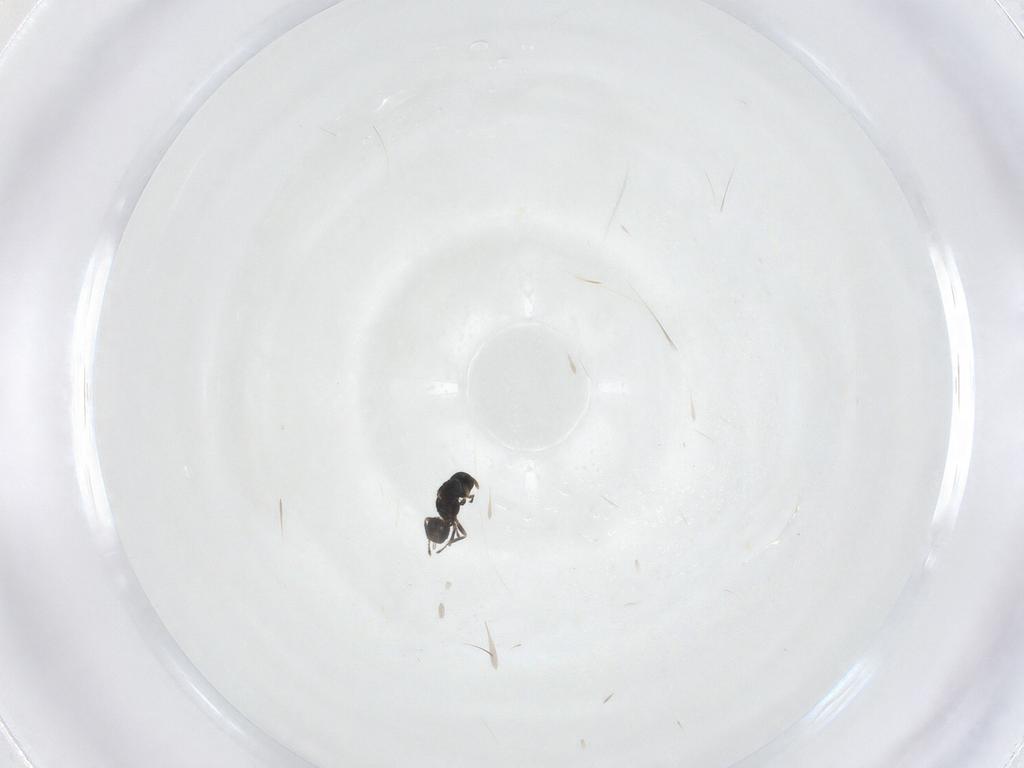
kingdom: Animalia
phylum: Arthropoda
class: Insecta
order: Hymenoptera
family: Eulophidae
